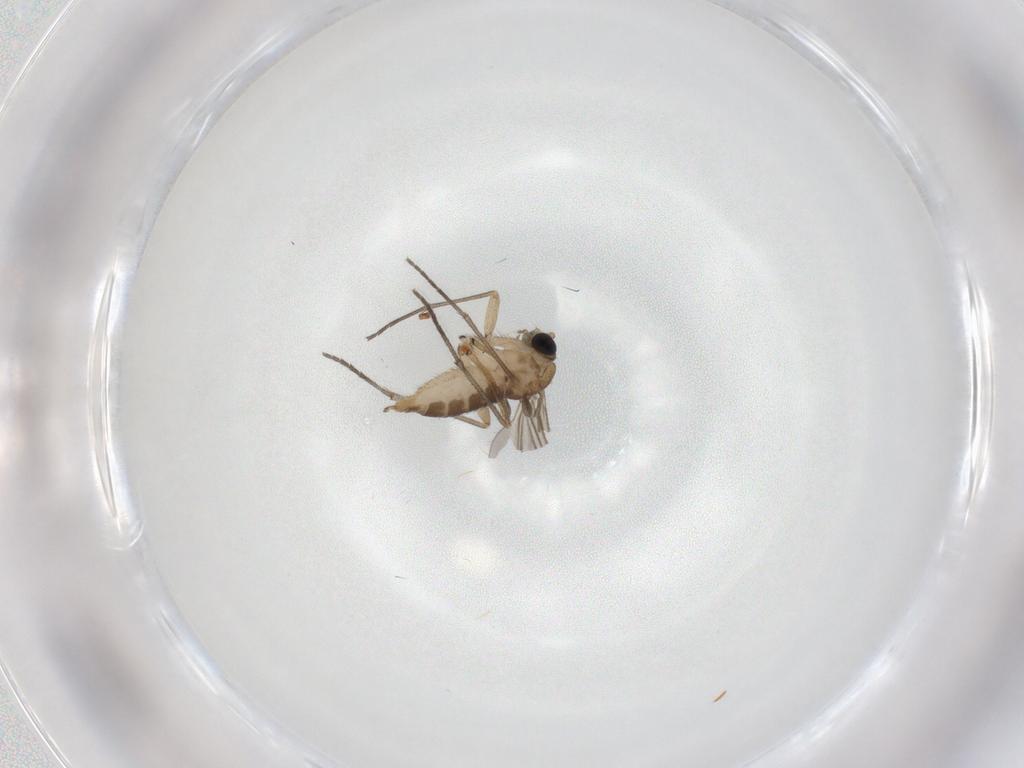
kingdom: Animalia
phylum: Arthropoda
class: Insecta
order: Diptera
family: Sciaridae
